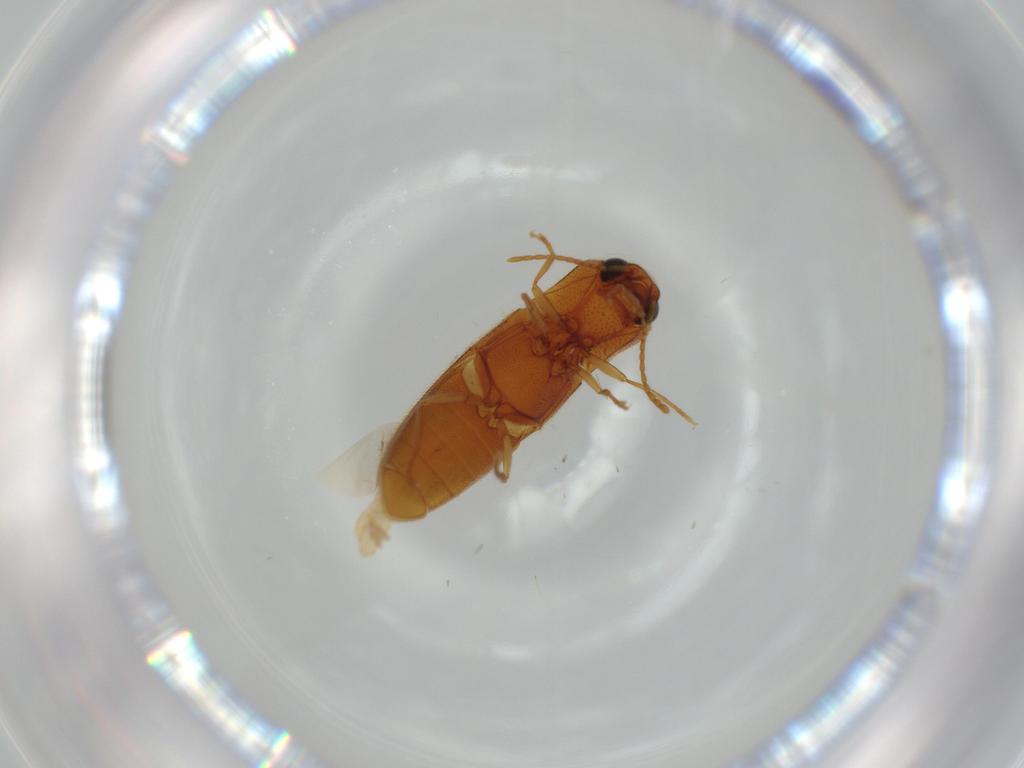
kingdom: Animalia
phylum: Arthropoda
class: Insecta
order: Coleoptera
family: Elateridae
